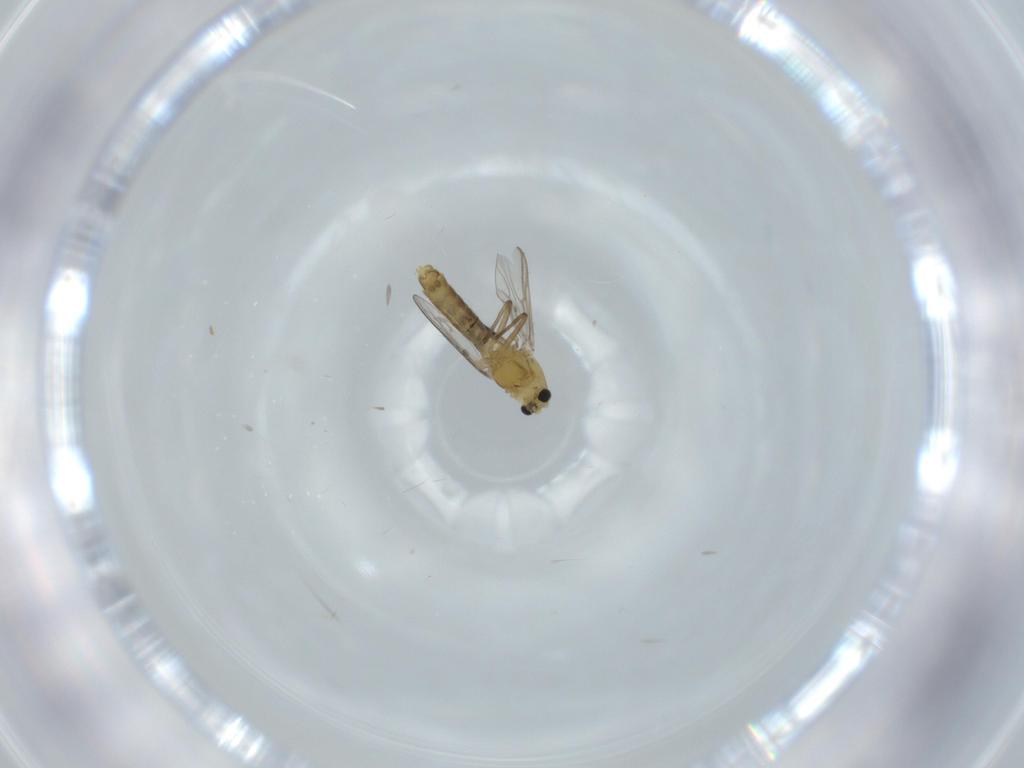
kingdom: Animalia
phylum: Arthropoda
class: Insecta
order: Diptera
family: Chironomidae
